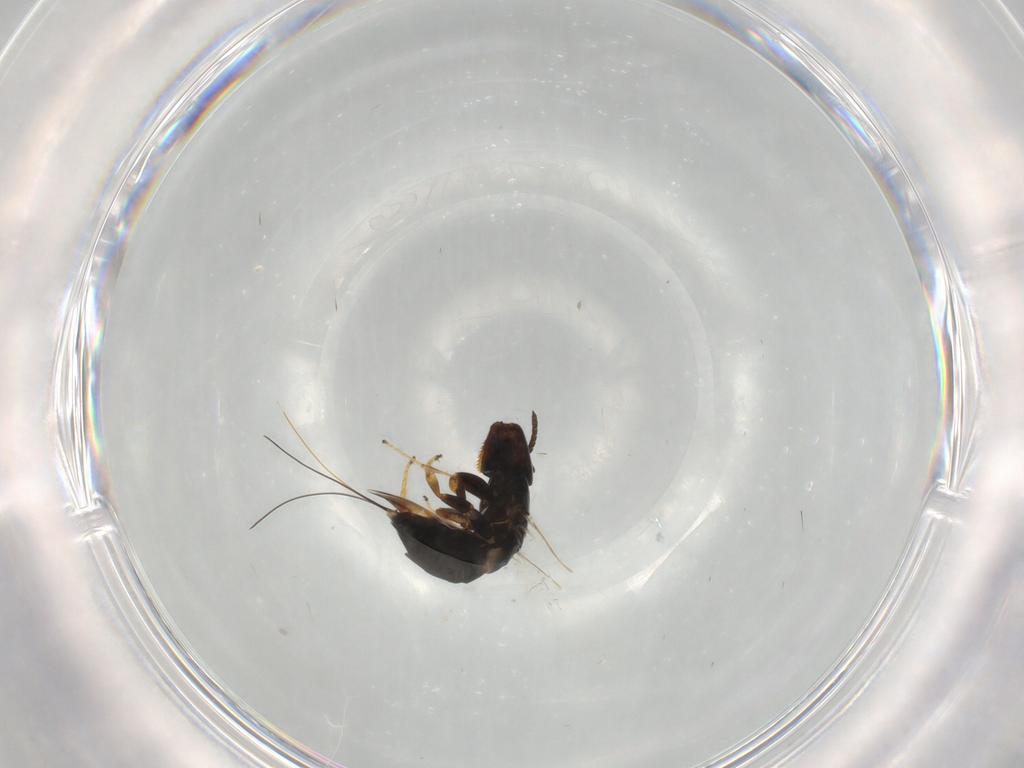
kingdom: Animalia
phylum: Arthropoda
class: Insecta
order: Hymenoptera
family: Agaonidae
